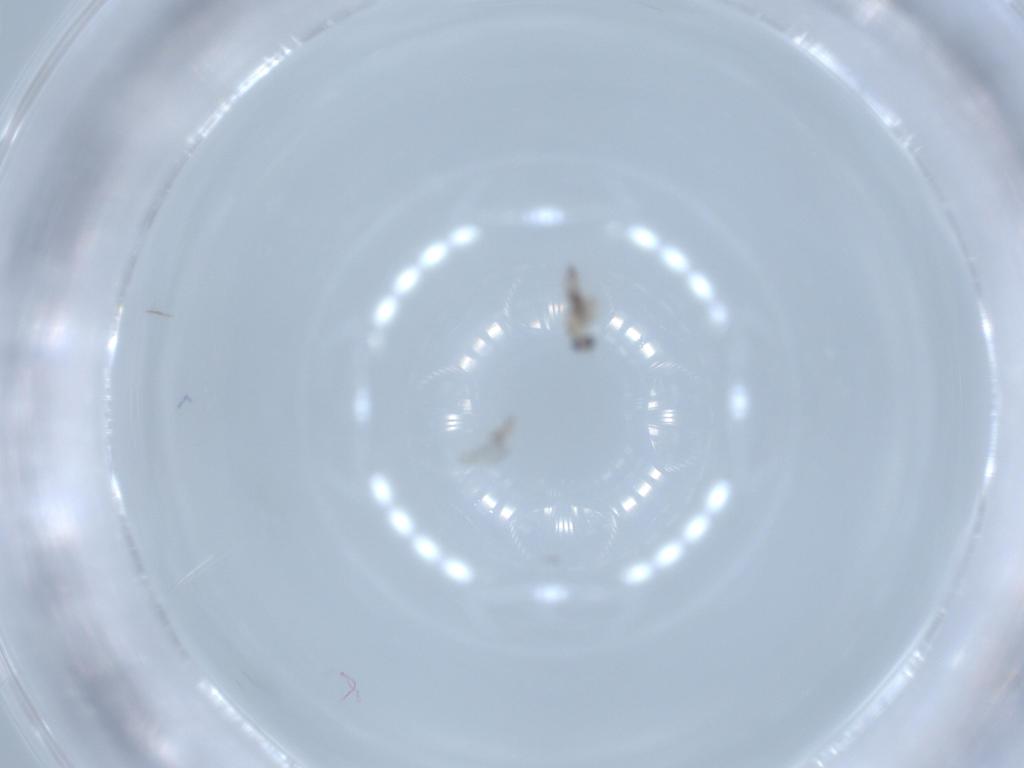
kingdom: Animalia
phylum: Arthropoda
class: Insecta
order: Diptera
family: Cecidomyiidae
